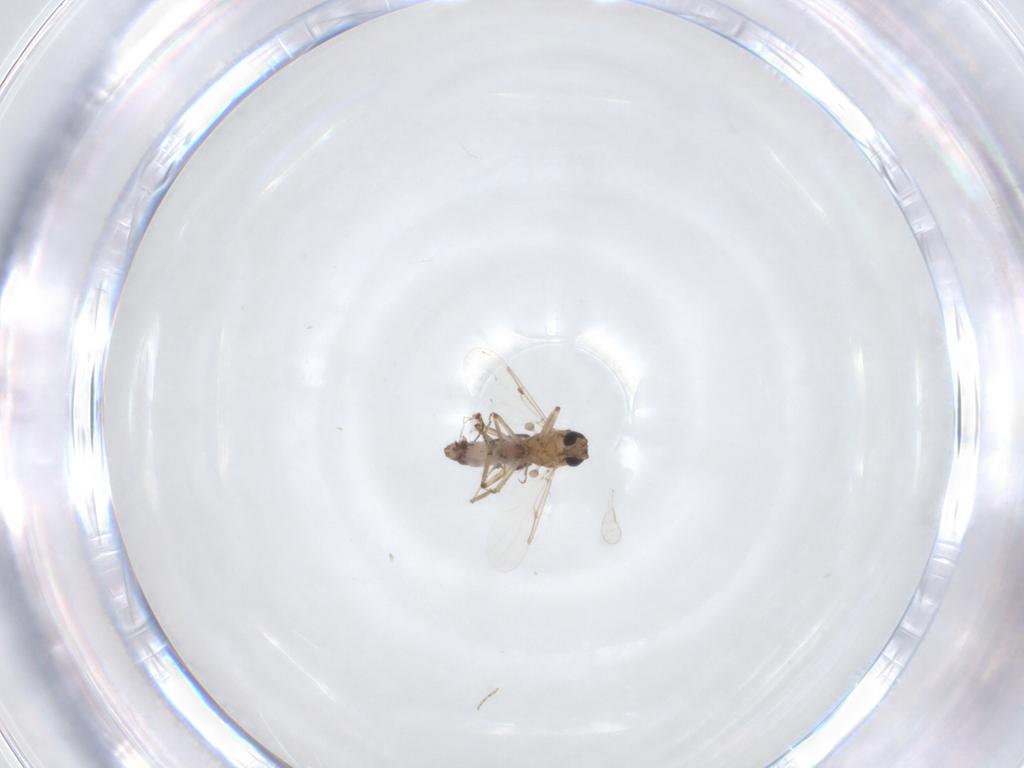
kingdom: Animalia
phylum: Arthropoda
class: Insecta
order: Diptera
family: Ceratopogonidae
